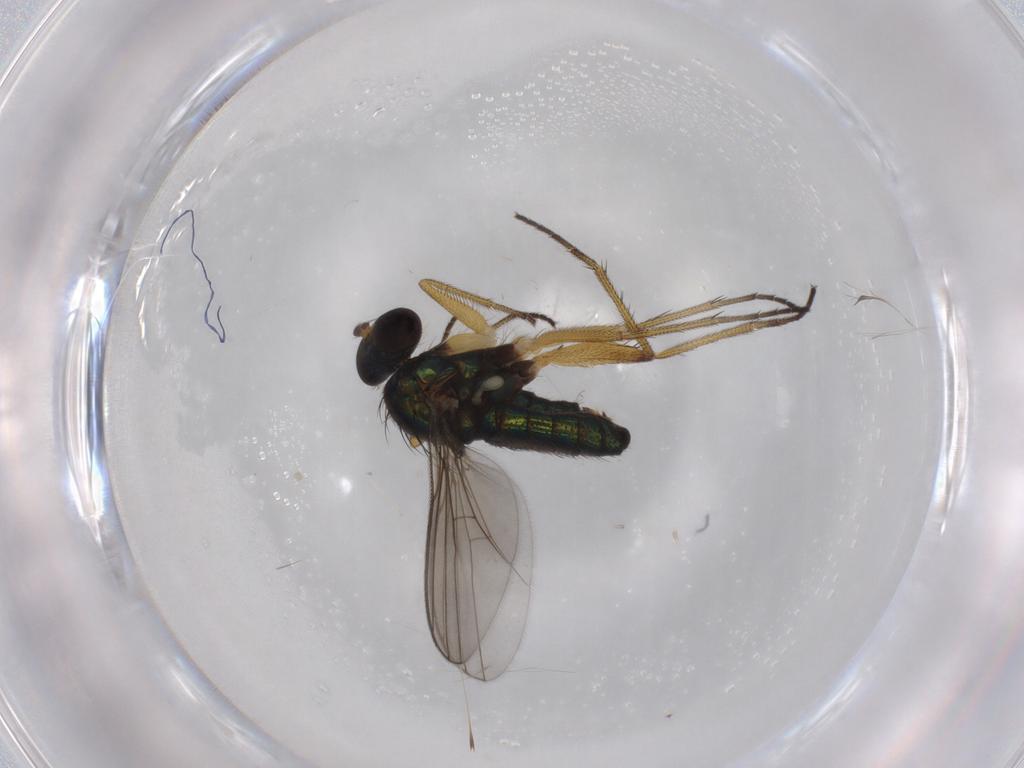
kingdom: Animalia
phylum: Arthropoda
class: Insecta
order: Diptera
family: Dolichopodidae
